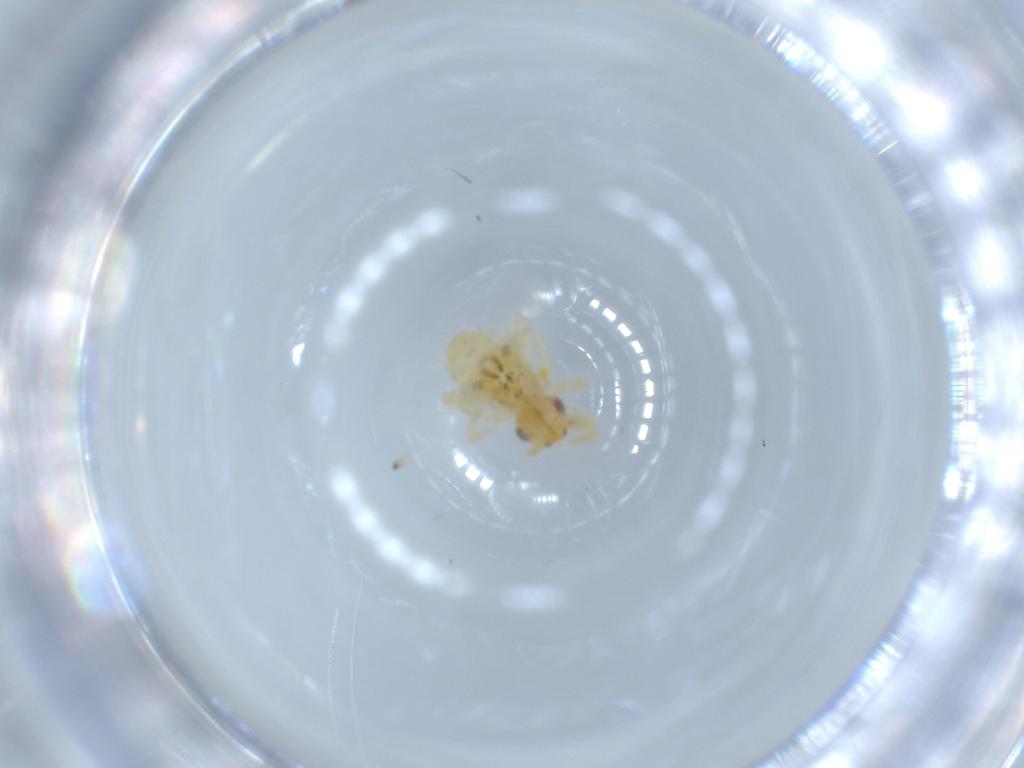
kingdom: Animalia
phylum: Arthropoda
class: Insecta
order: Hemiptera
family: Psyllidae
